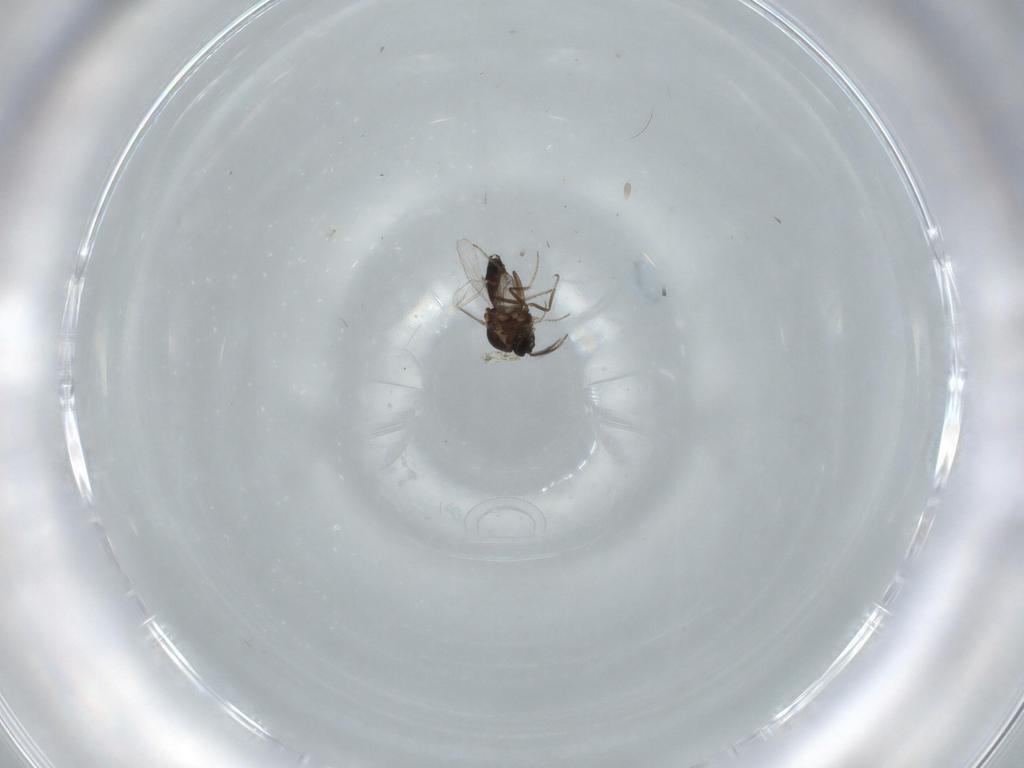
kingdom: Animalia
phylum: Arthropoda
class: Insecta
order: Diptera
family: Ceratopogonidae
